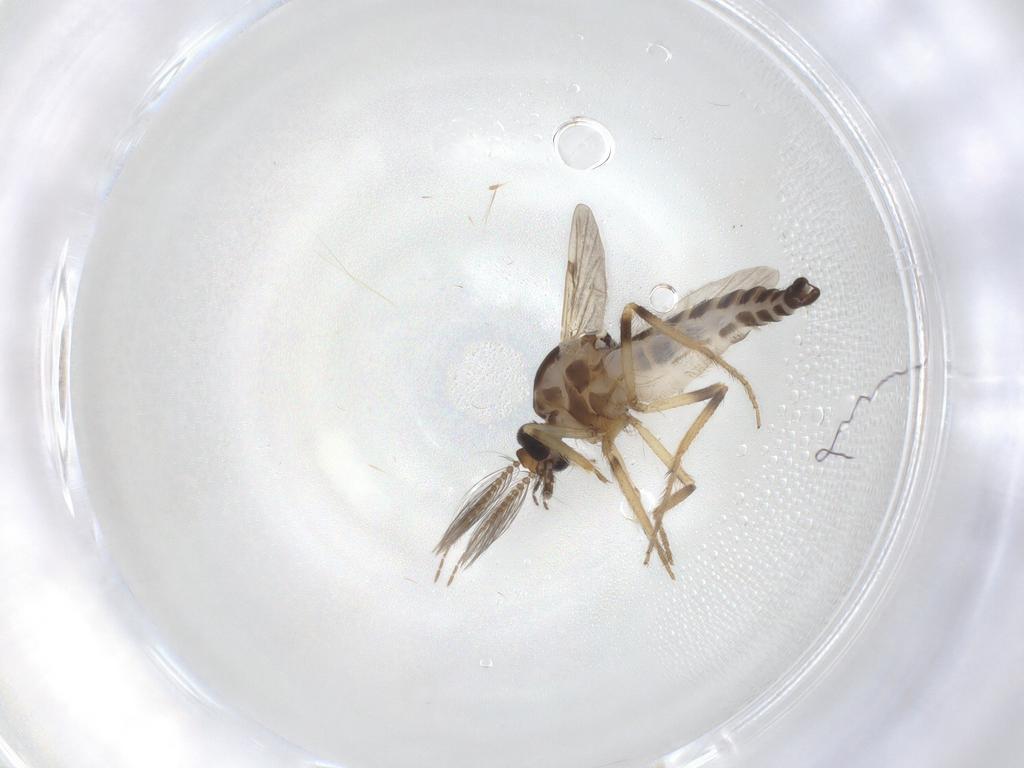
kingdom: Animalia
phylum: Arthropoda
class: Insecta
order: Diptera
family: Ceratopogonidae
